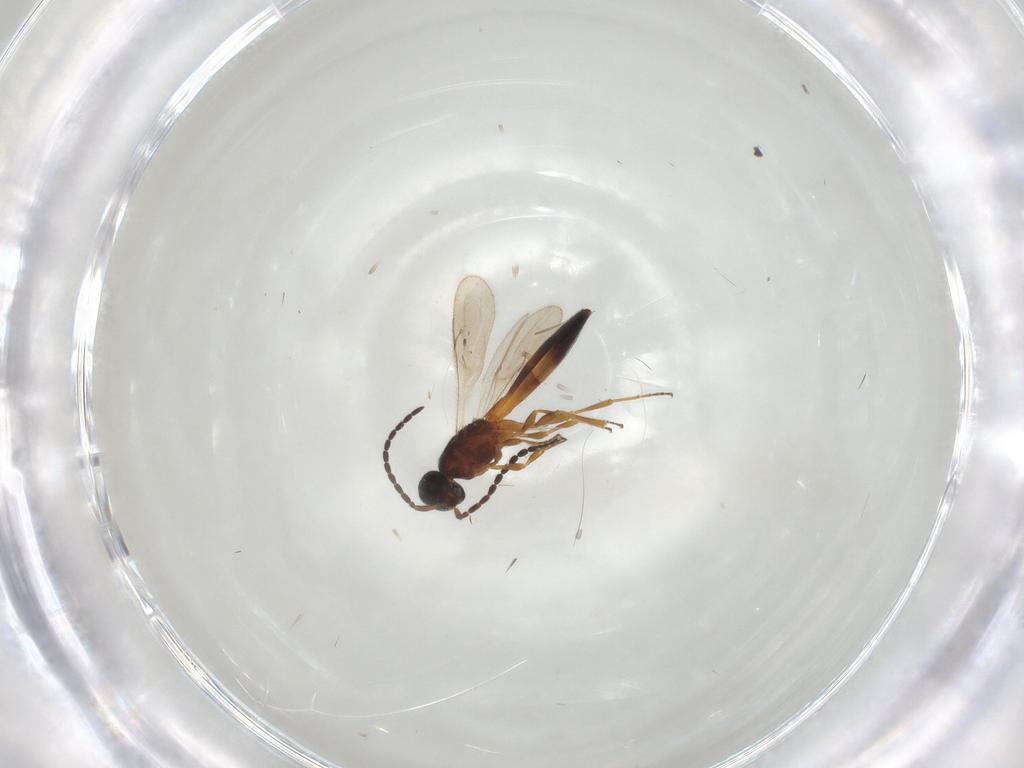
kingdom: Animalia
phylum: Arthropoda
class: Insecta
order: Hymenoptera
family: Scelionidae
